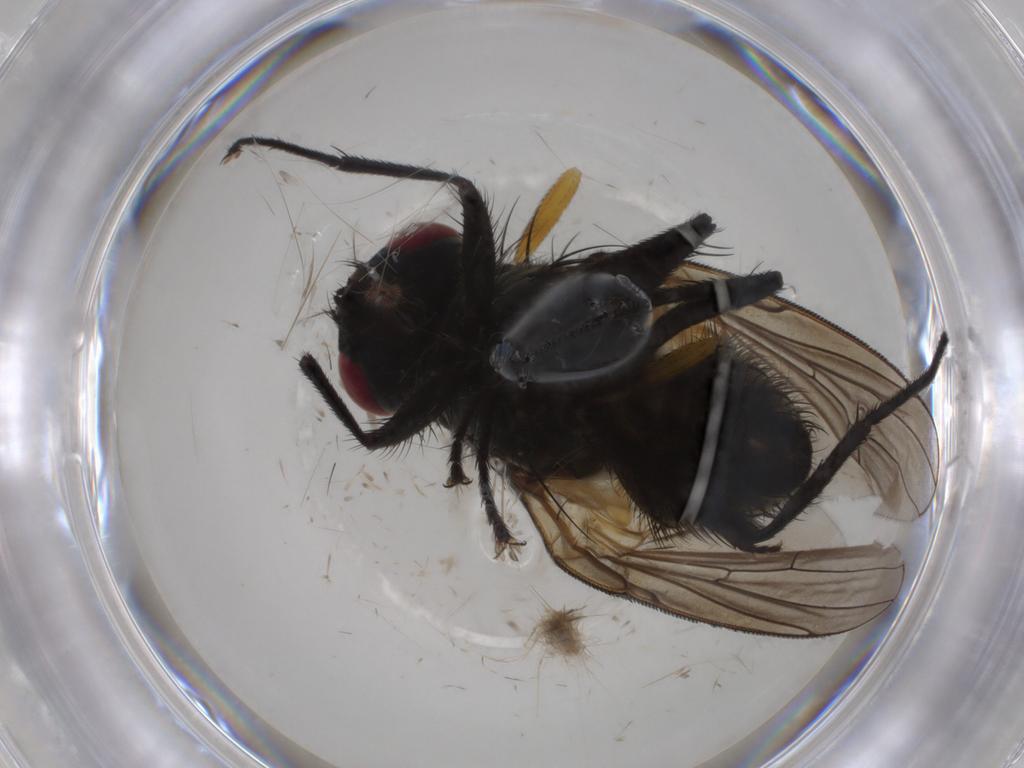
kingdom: Animalia
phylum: Arthropoda
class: Insecta
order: Diptera
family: Muscidae
